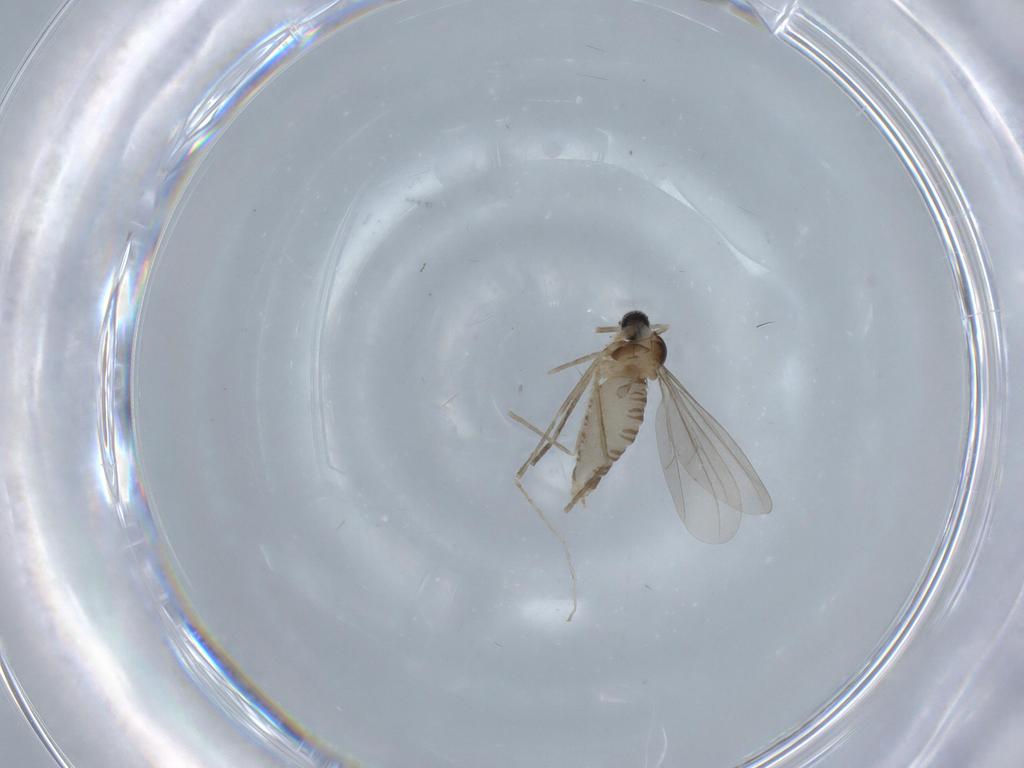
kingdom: Animalia
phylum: Arthropoda
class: Insecta
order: Diptera
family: Cecidomyiidae
